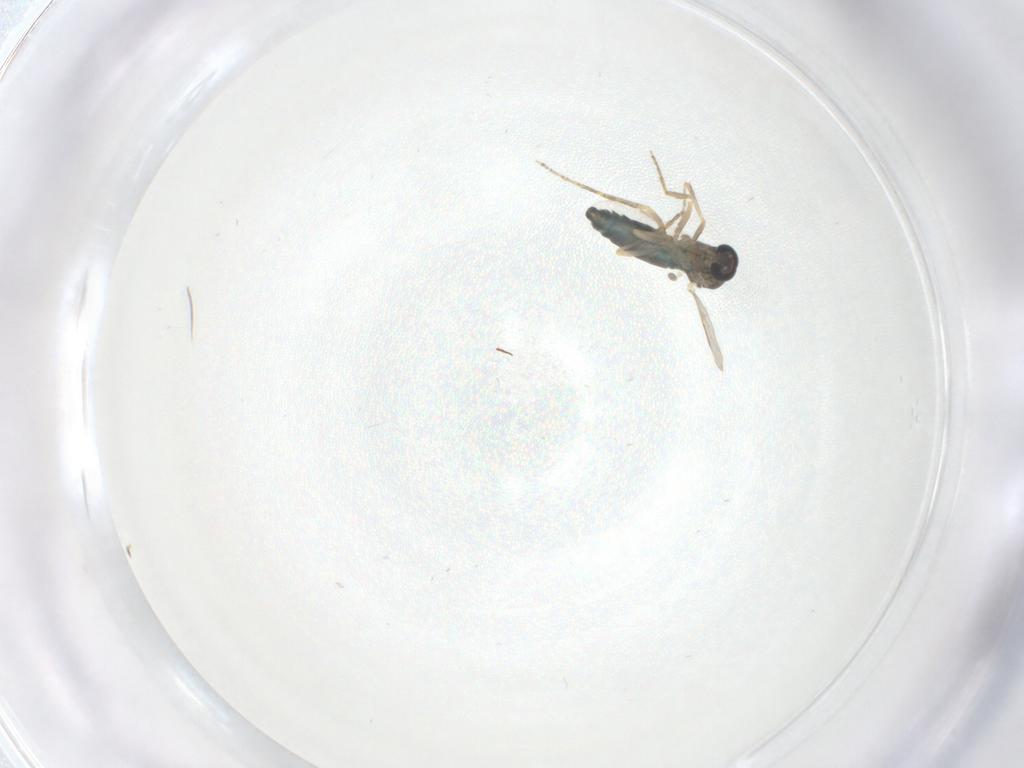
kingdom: Animalia
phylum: Arthropoda
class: Insecta
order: Diptera
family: Ceratopogonidae
